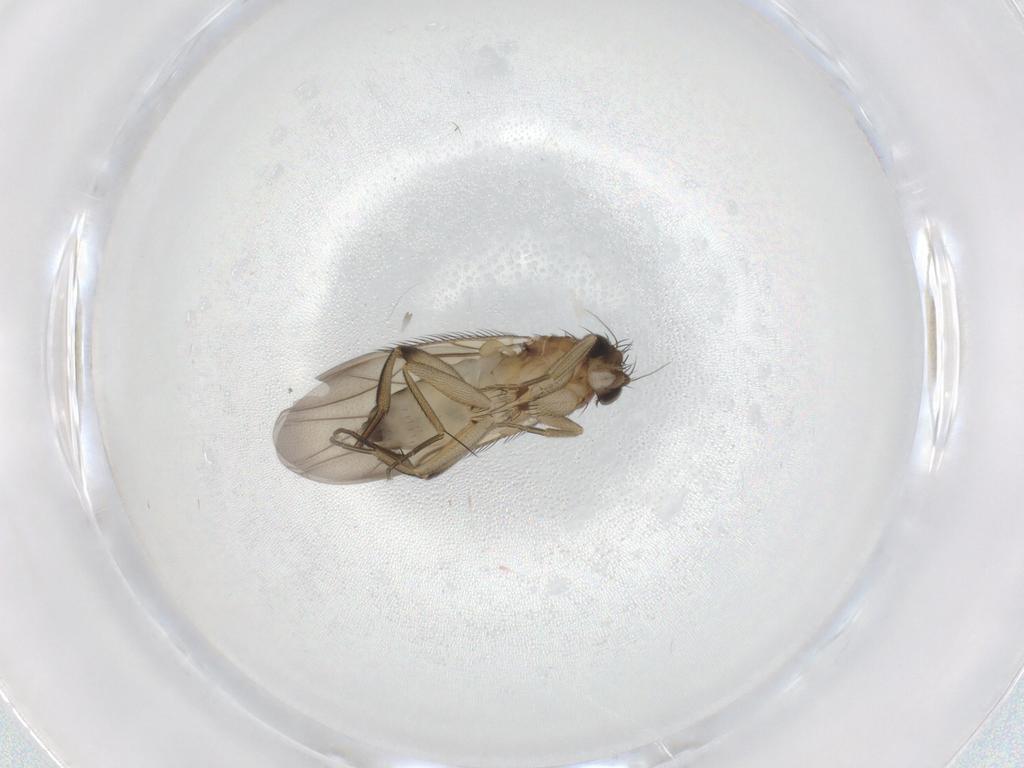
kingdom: Animalia
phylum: Arthropoda
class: Insecta
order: Diptera
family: Phoridae
